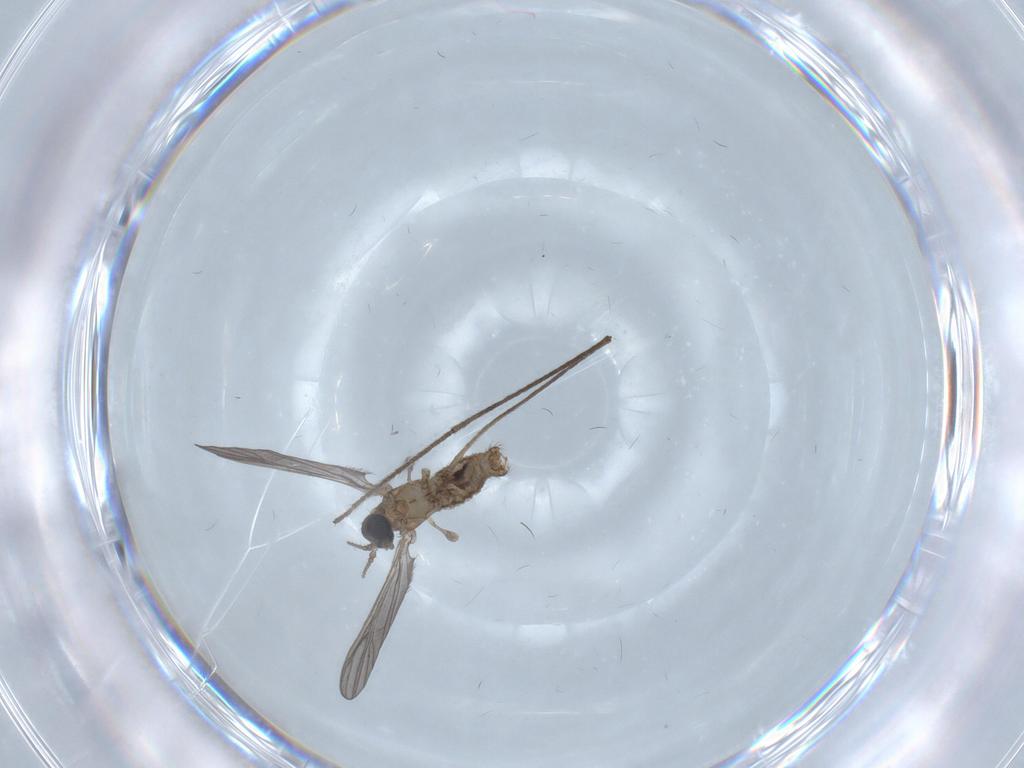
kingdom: Animalia
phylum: Arthropoda
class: Insecta
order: Diptera
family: Limoniidae
